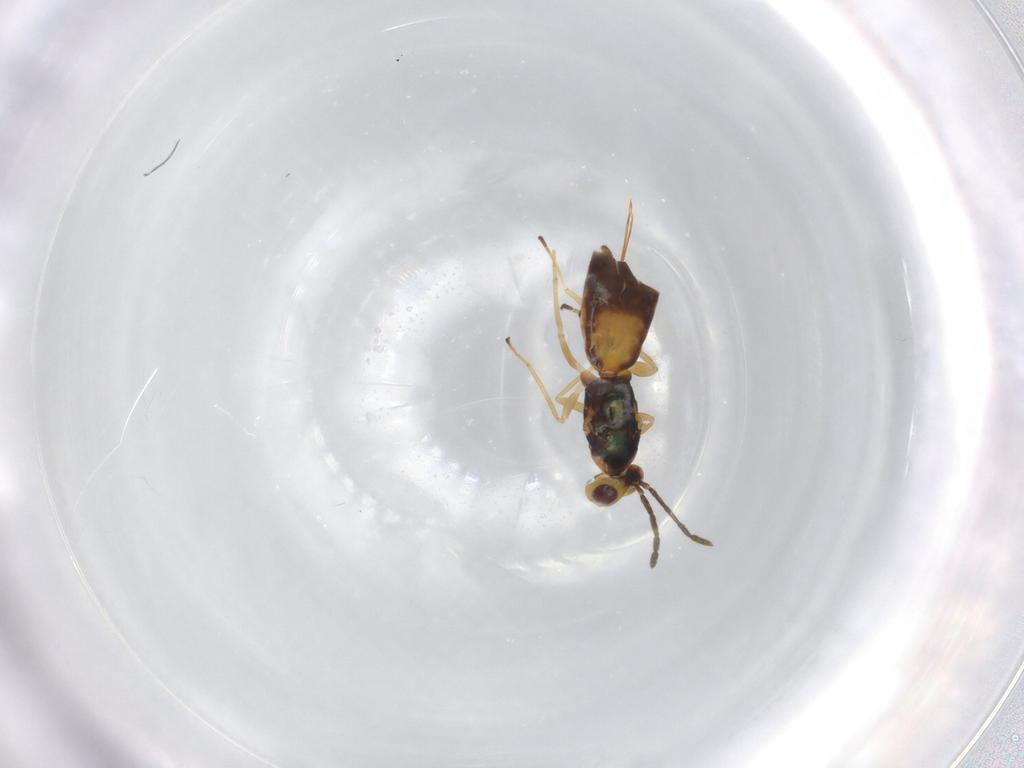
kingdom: Animalia
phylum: Arthropoda
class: Insecta
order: Hymenoptera
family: Eulophidae
